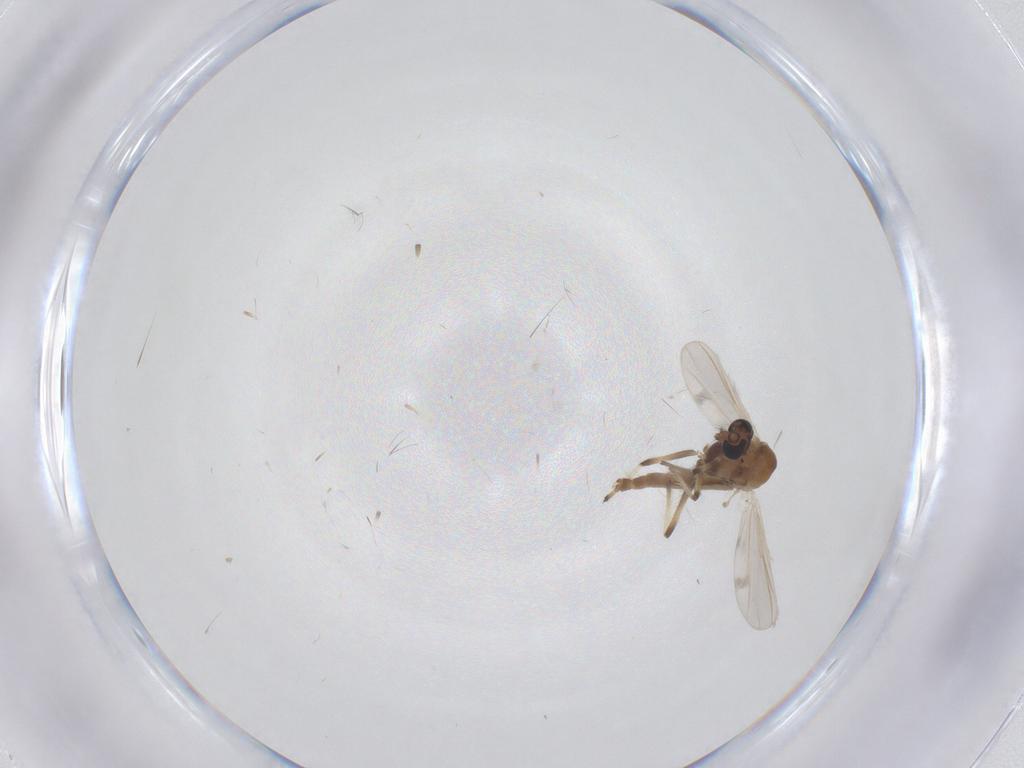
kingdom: Animalia
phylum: Arthropoda
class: Insecta
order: Diptera
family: Chironomidae
